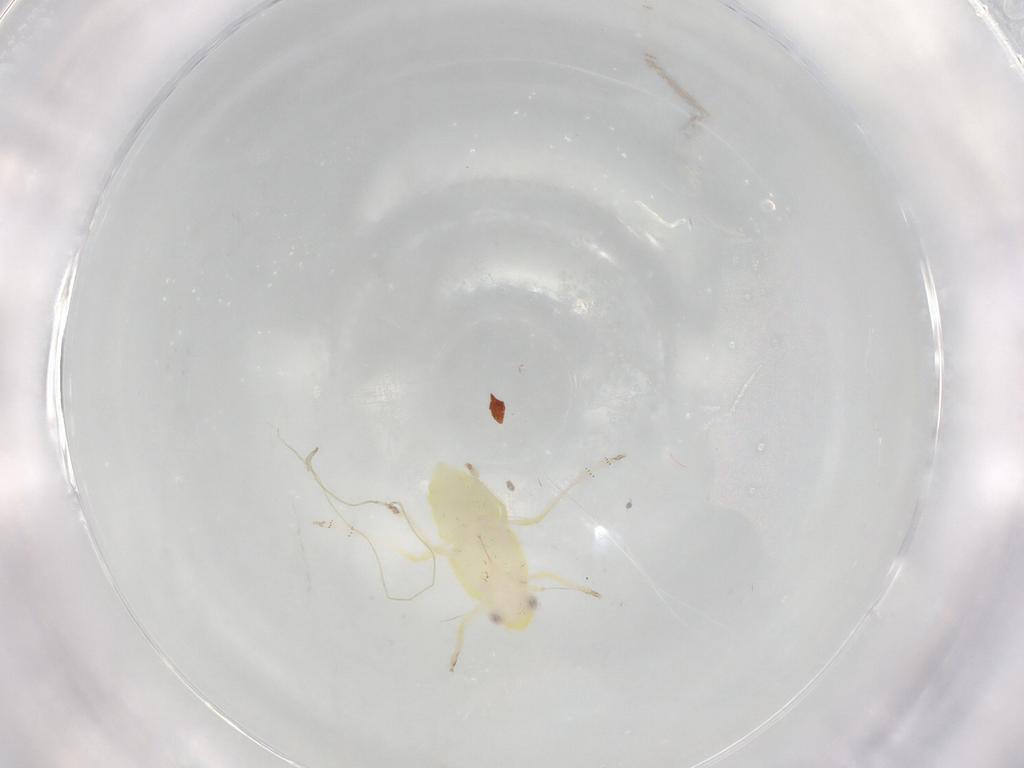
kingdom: Animalia
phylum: Arthropoda
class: Insecta
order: Hemiptera
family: Tropiduchidae
